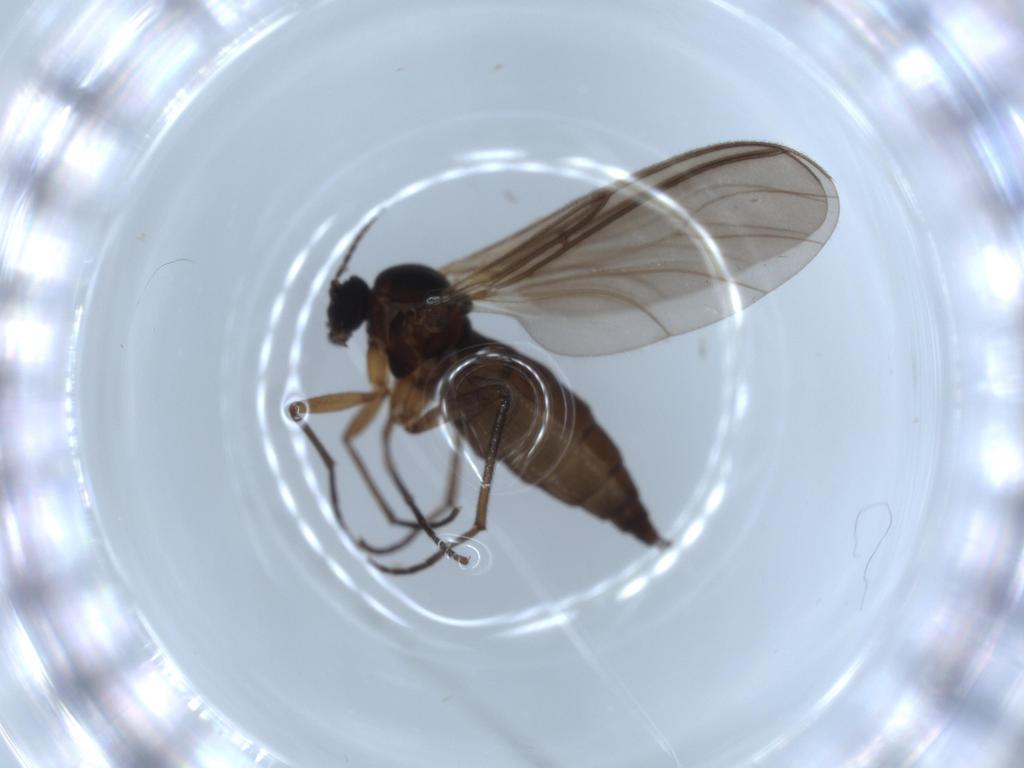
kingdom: Animalia
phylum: Arthropoda
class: Insecta
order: Diptera
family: Sciaridae
